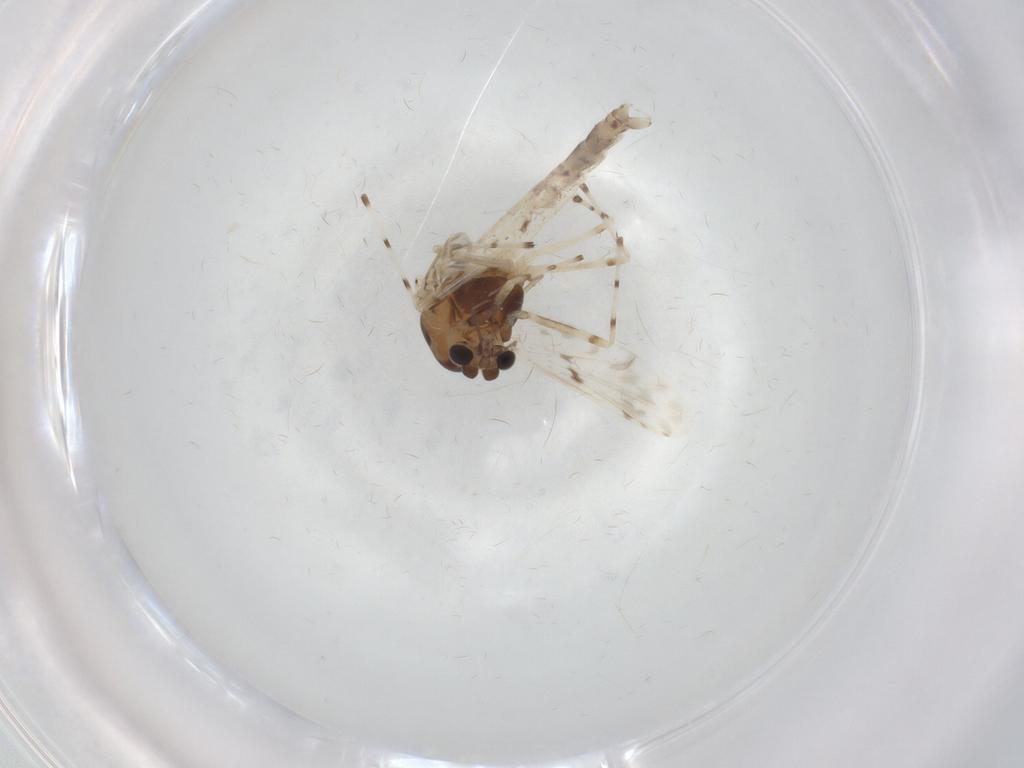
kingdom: Animalia
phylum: Arthropoda
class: Insecta
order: Diptera
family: Chironomidae
